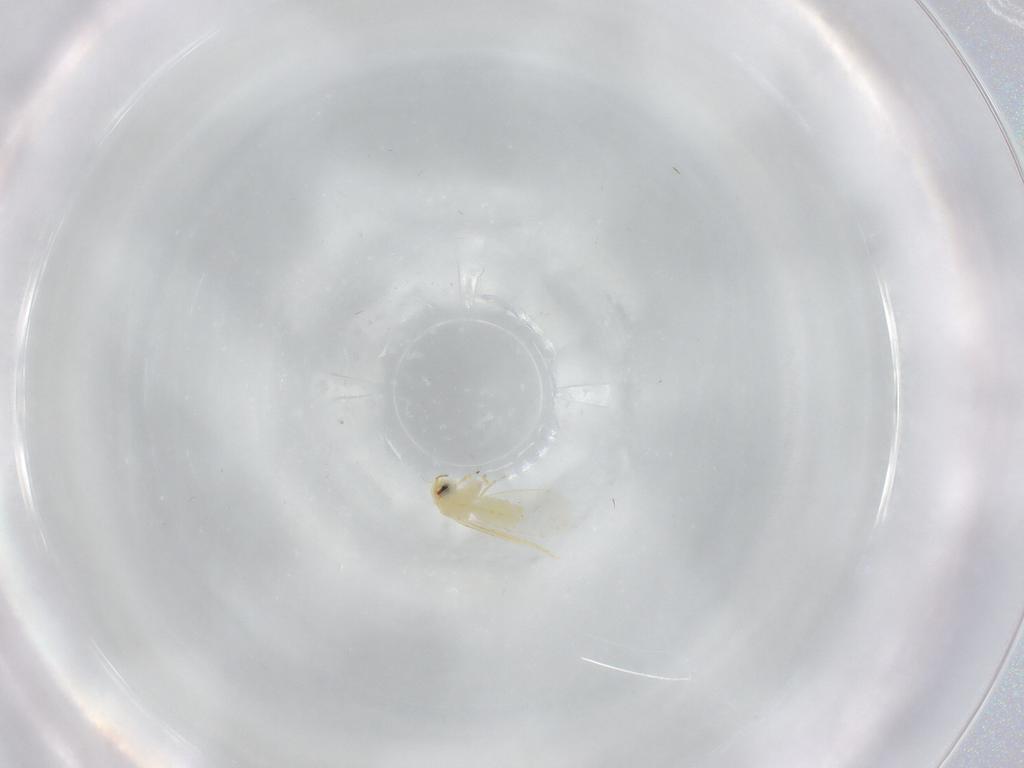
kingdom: Animalia
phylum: Arthropoda
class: Insecta
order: Hemiptera
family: Aleyrodidae
